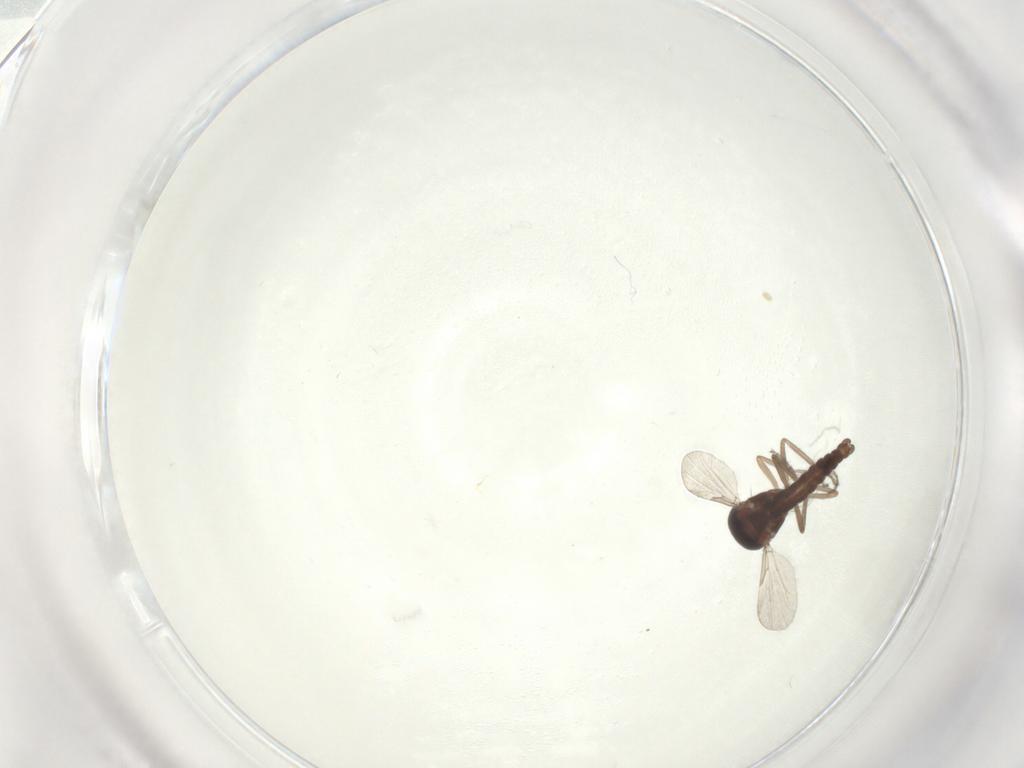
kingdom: Animalia
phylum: Arthropoda
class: Insecta
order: Diptera
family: Ceratopogonidae
